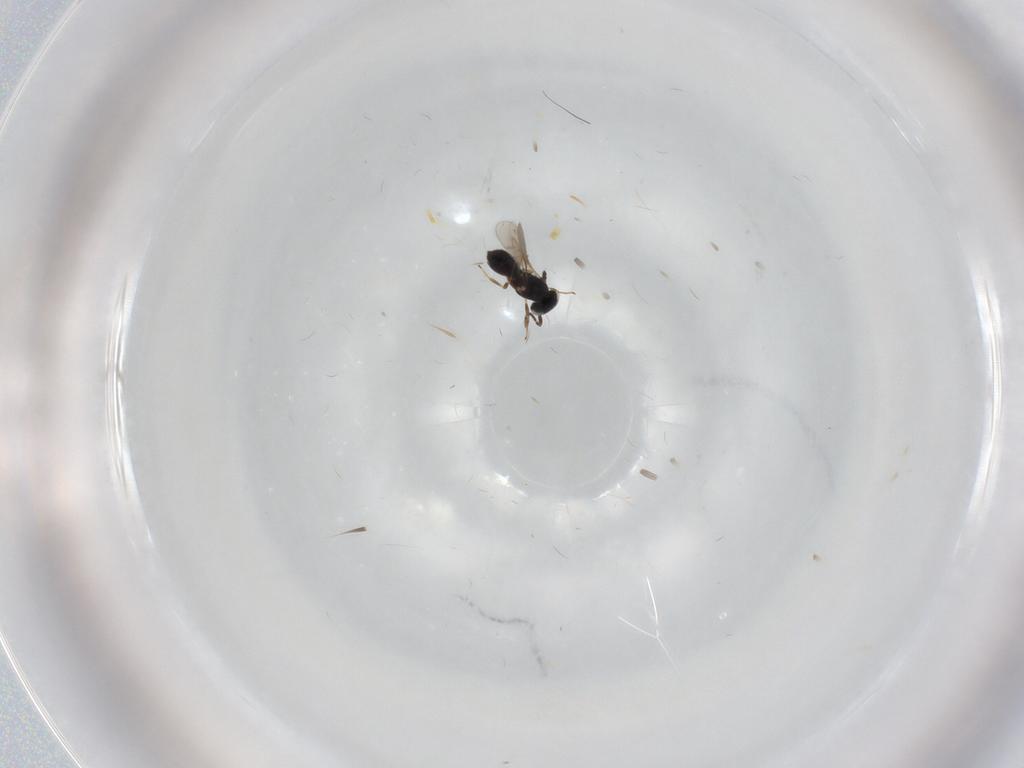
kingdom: Animalia
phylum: Arthropoda
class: Insecta
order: Hymenoptera
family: Scelionidae
